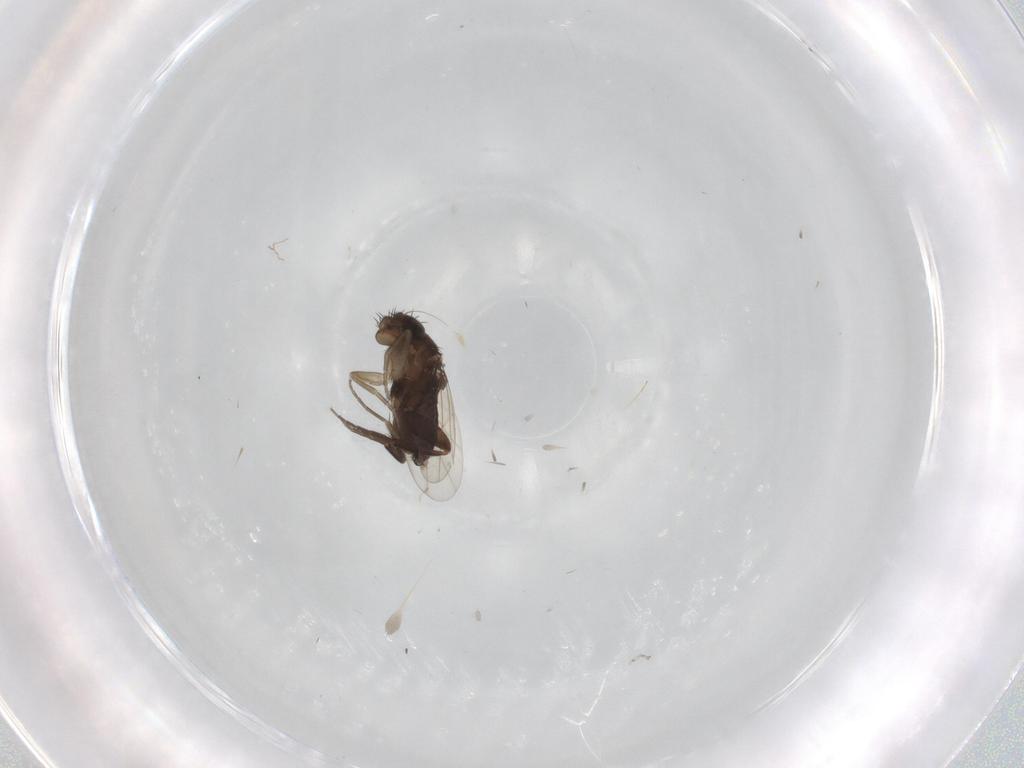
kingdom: Animalia
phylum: Arthropoda
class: Insecta
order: Diptera
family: Phoridae
